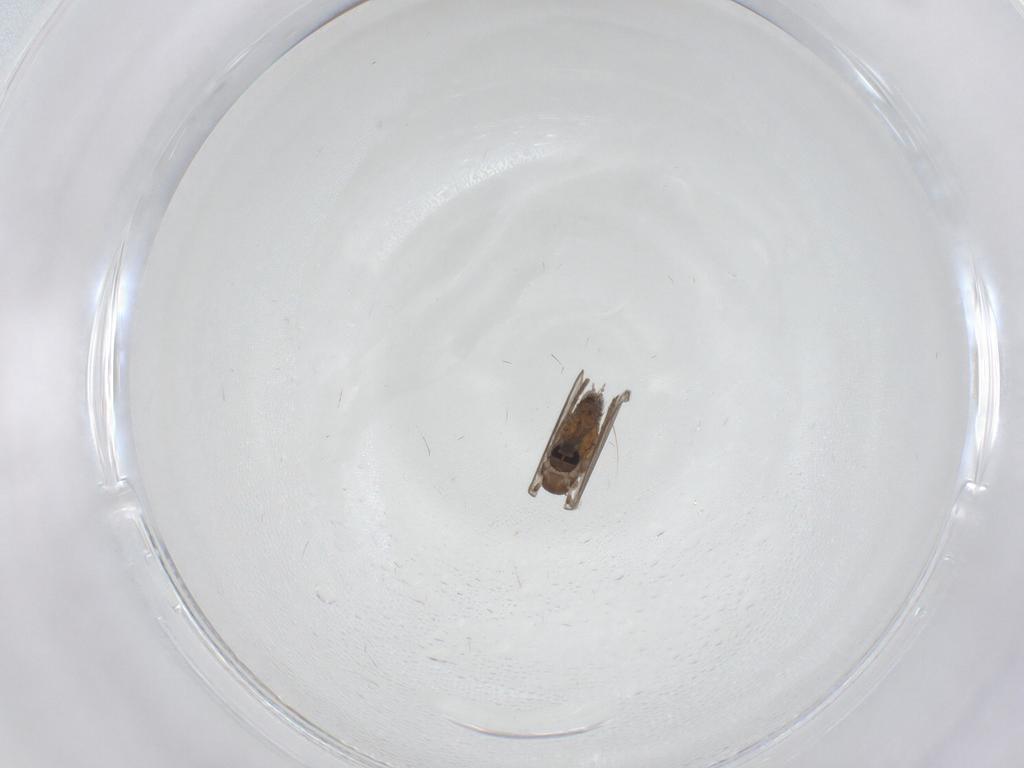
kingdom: Animalia
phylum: Arthropoda
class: Insecta
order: Diptera
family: Psychodidae
